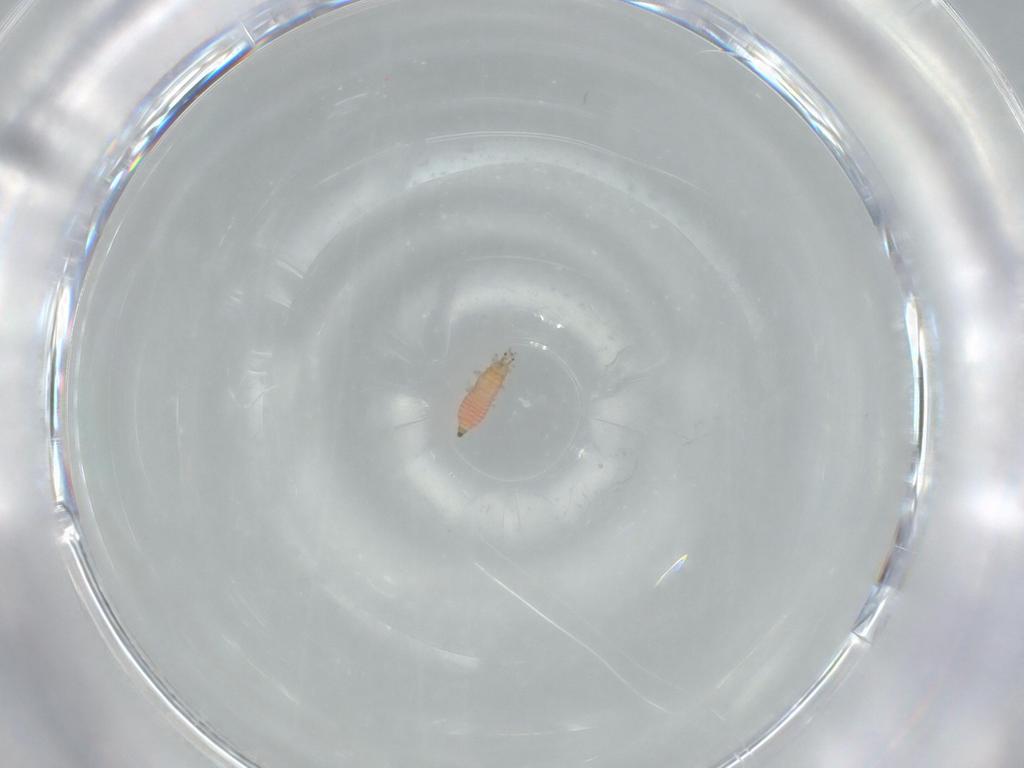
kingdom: Animalia
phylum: Arthropoda
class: Insecta
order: Thysanoptera
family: Thripidae
